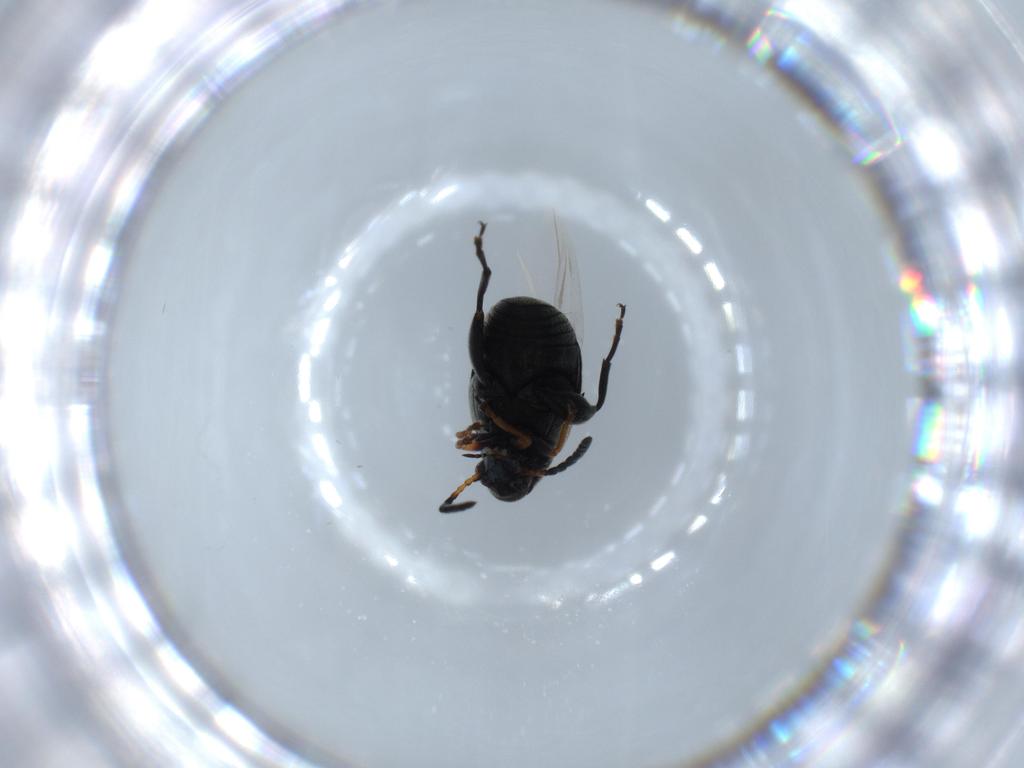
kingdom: Animalia
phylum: Arthropoda
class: Insecta
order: Coleoptera
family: Chrysomelidae
